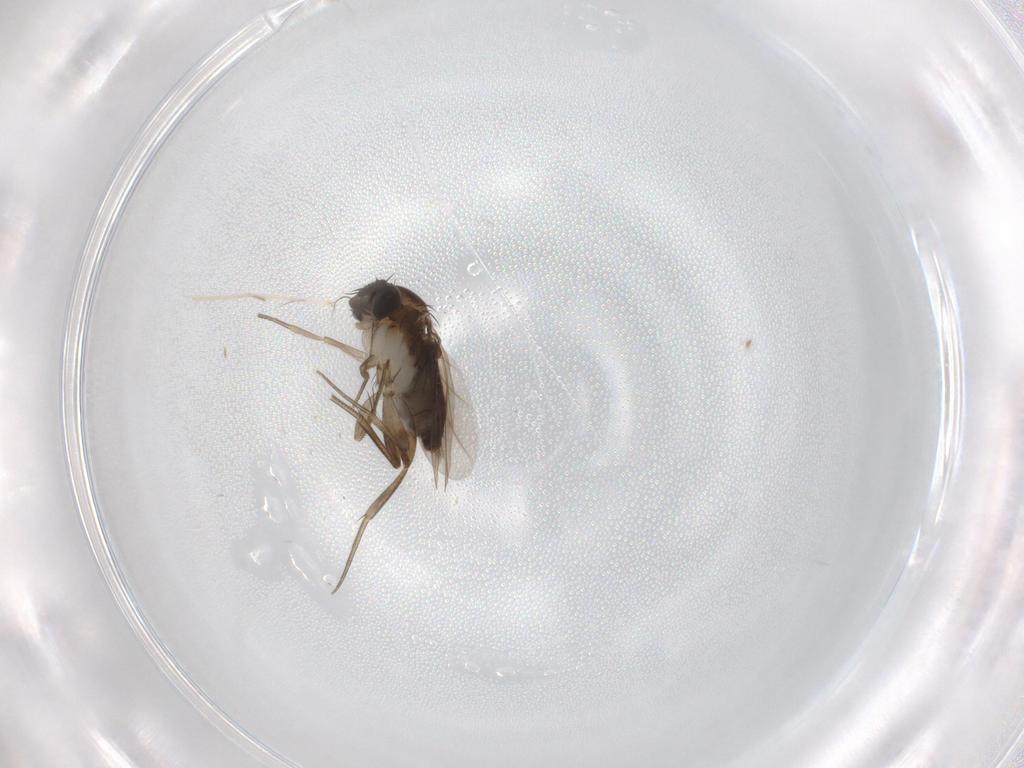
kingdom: Animalia
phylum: Arthropoda
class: Insecta
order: Diptera
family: Phoridae
